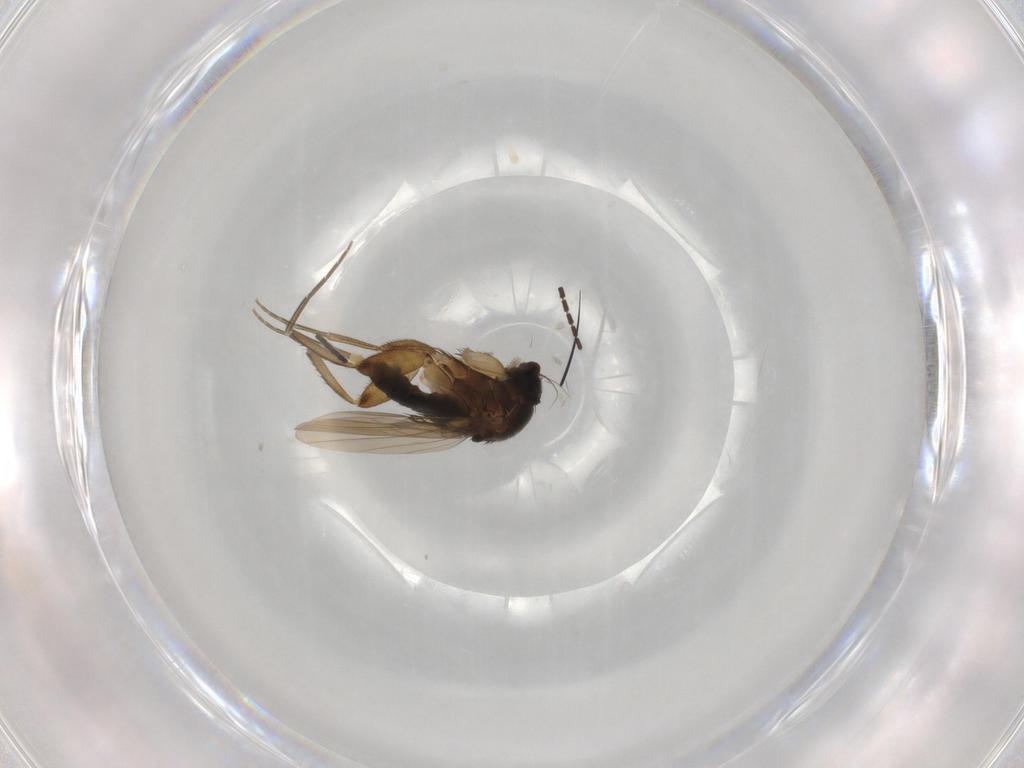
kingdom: Animalia
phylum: Arthropoda
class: Insecta
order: Diptera
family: Phoridae
